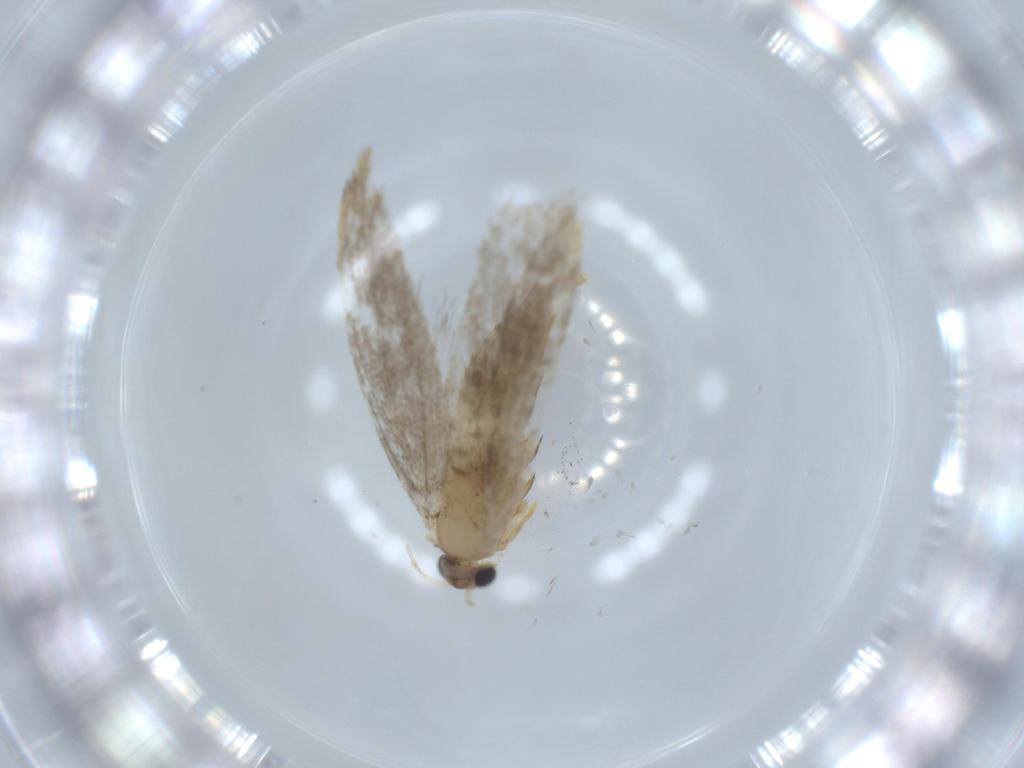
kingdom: Animalia
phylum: Arthropoda
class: Insecta
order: Lepidoptera
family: Nepticulidae
